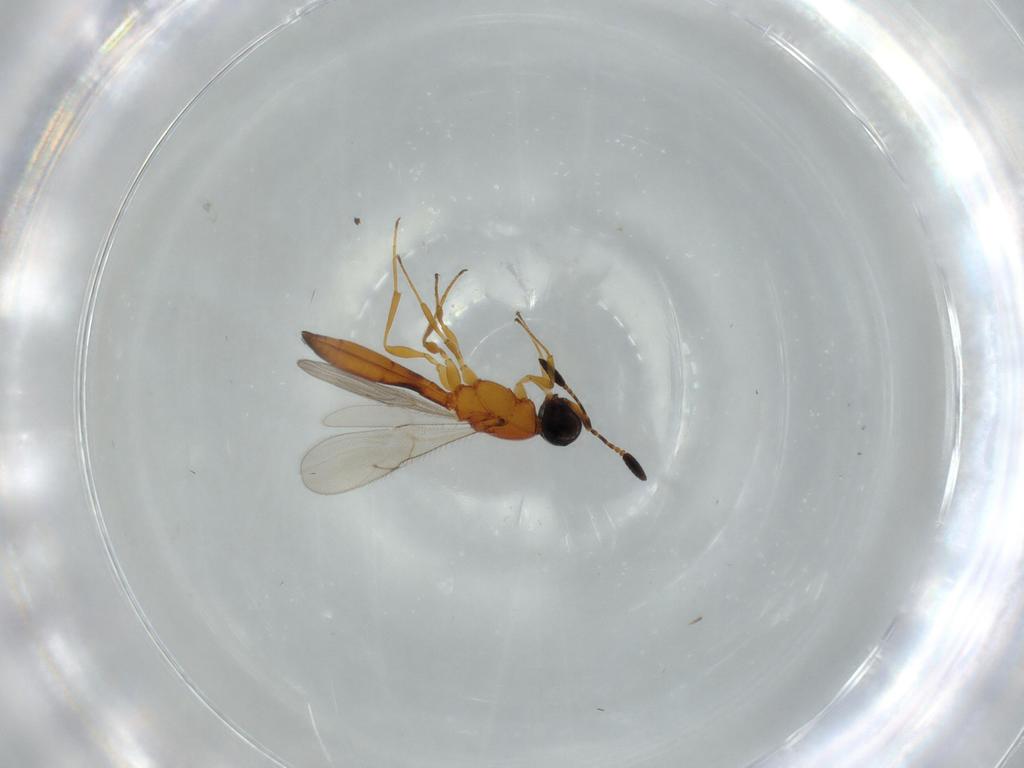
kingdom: Animalia
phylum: Arthropoda
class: Insecta
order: Hymenoptera
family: Scelionidae
